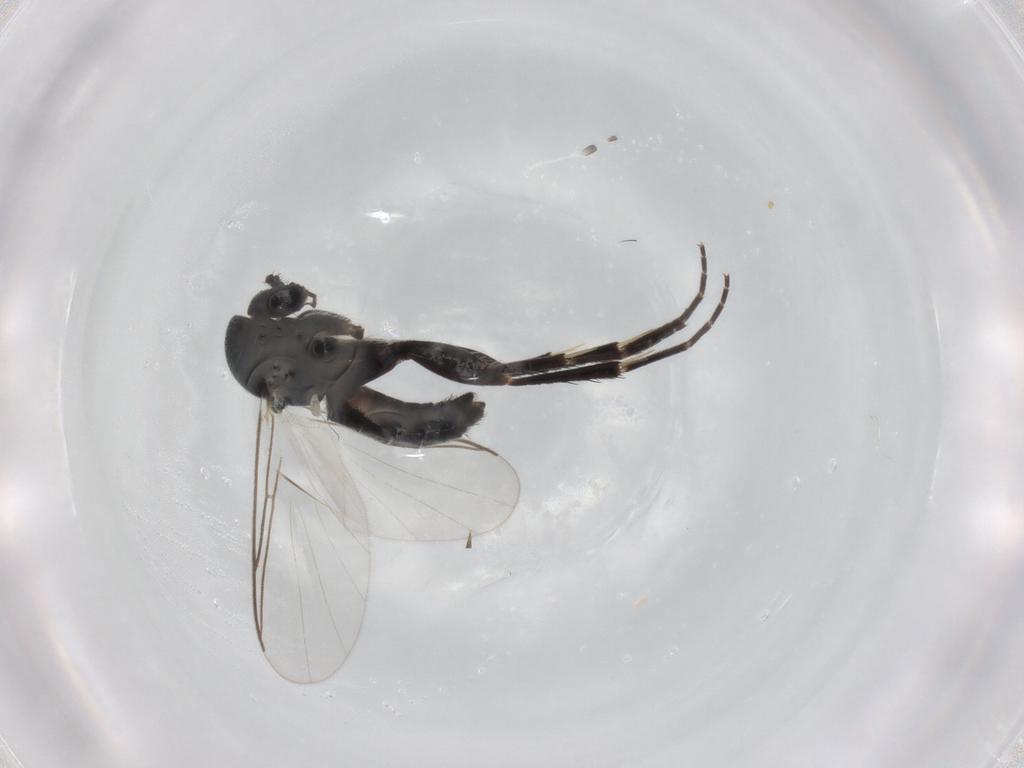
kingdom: Animalia
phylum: Arthropoda
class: Insecta
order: Diptera
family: Mycetophilidae
